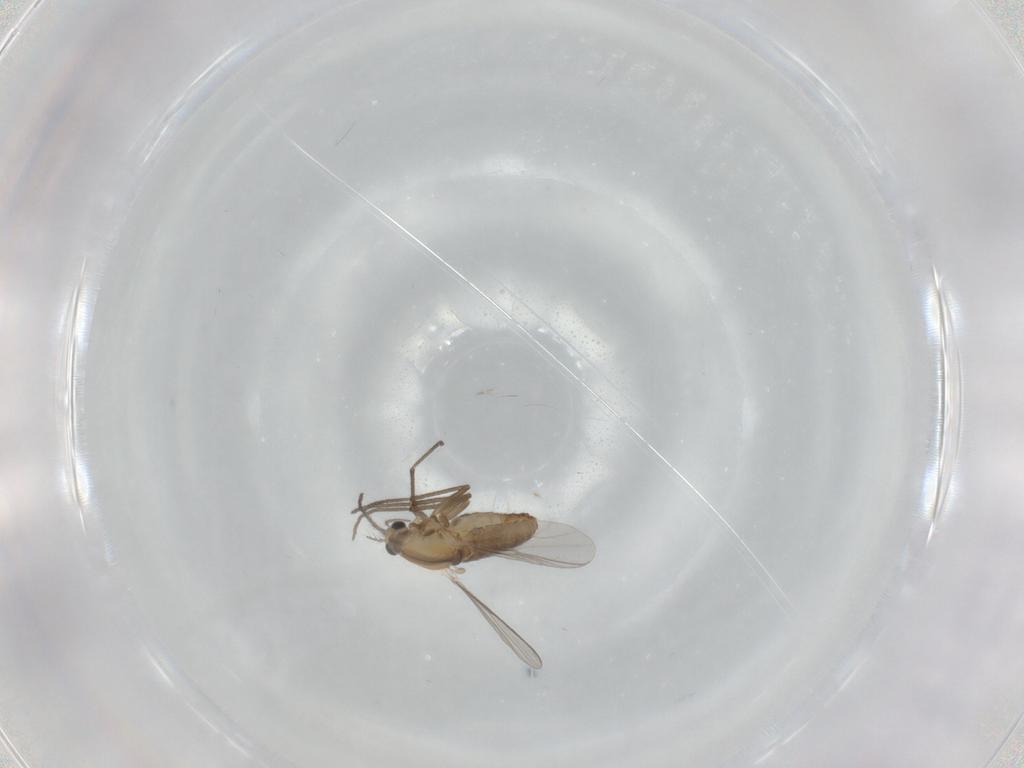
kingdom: Animalia
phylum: Arthropoda
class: Insecta
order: Diptera
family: Chironomidae
